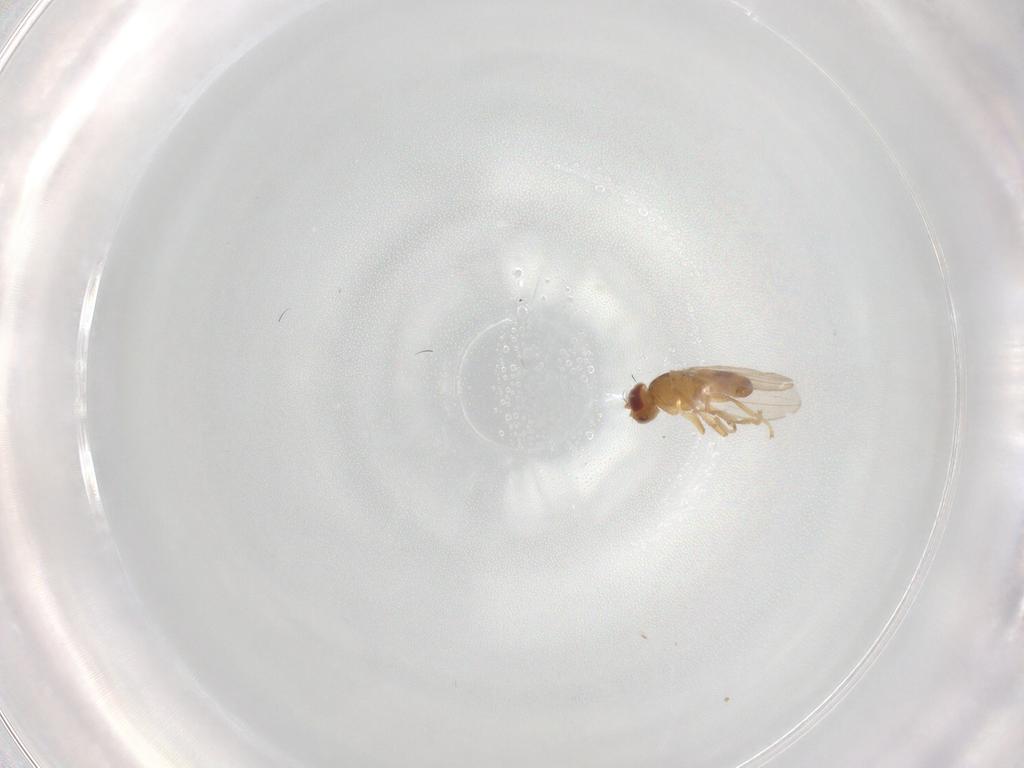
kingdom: Animalia
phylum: Arthropoda
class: Insecta
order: Diptera
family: Periscelididae
